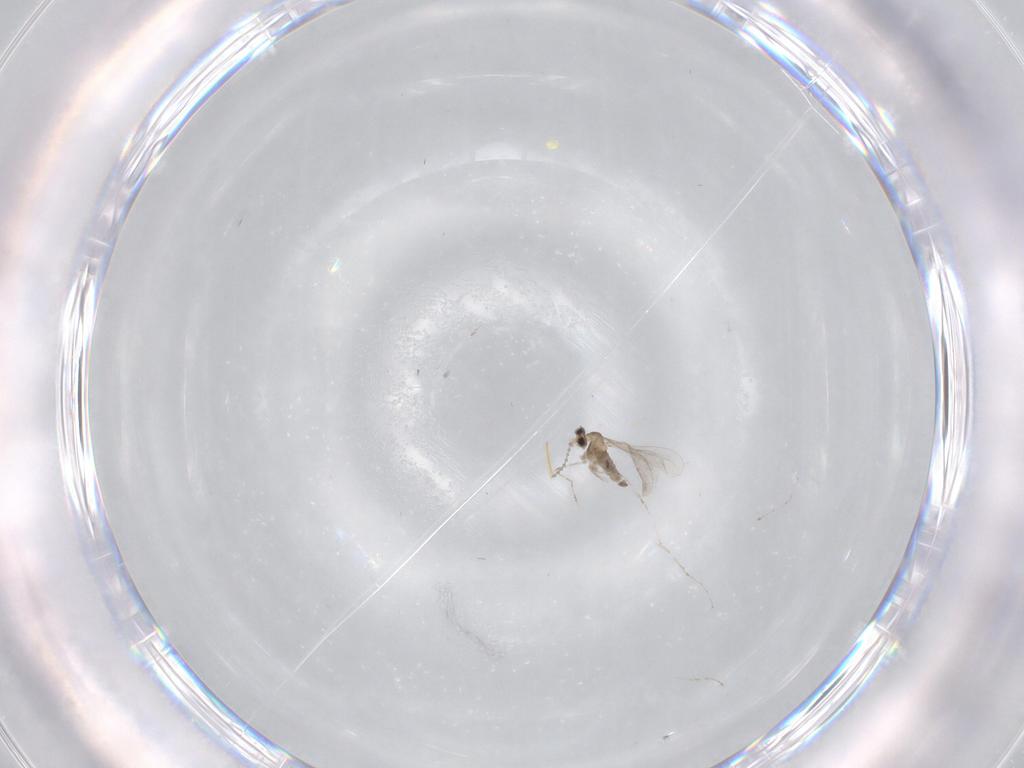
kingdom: Animalia
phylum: Arthropoda
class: Insecta
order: Diptera
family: Cecidomyiidae
